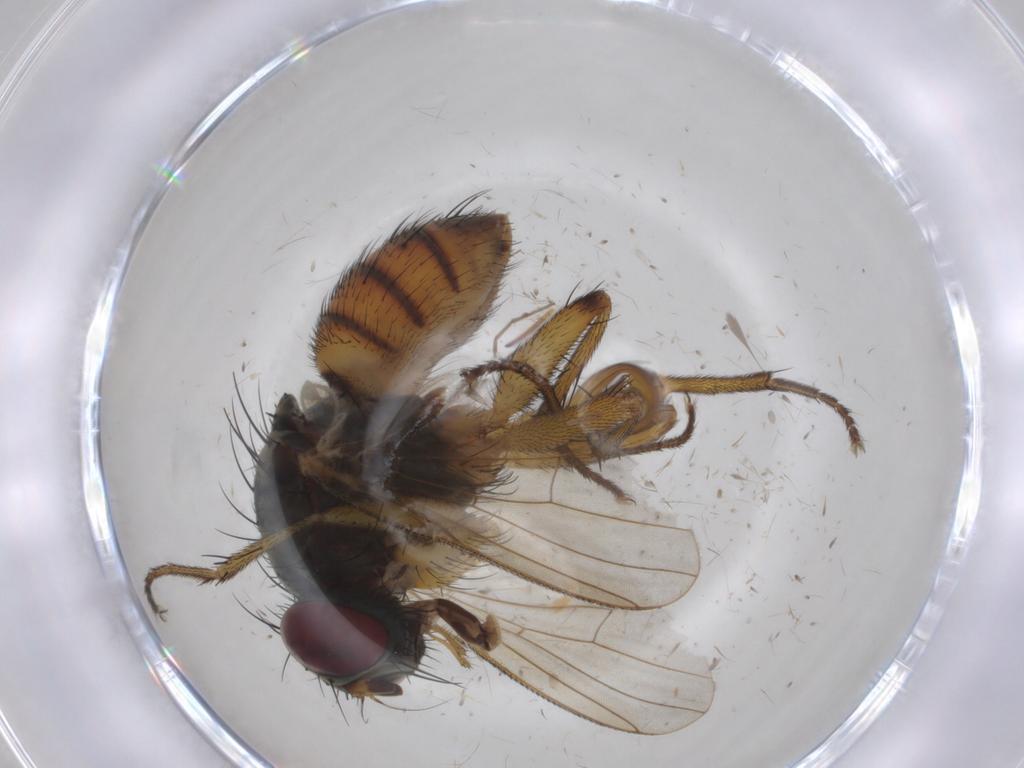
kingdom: Animalia
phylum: Arthropoda
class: Insecta
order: Diptera
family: Muscidae
